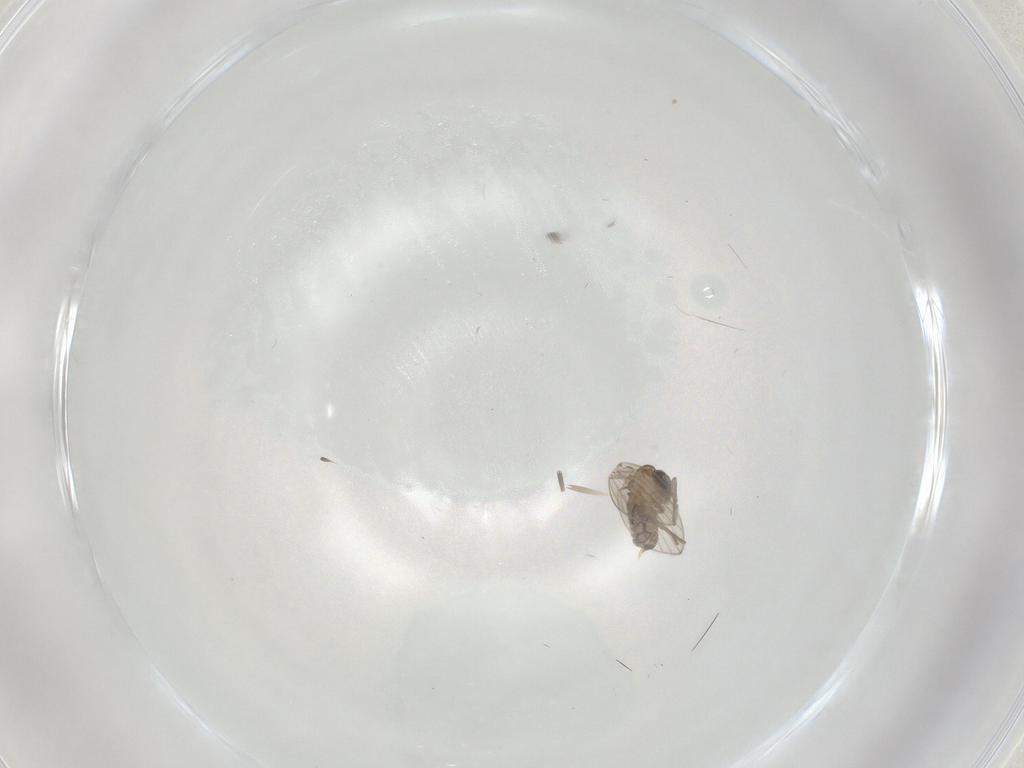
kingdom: Animalia
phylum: Arthropoda
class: Insecta
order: Diptera
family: Psychodidae
